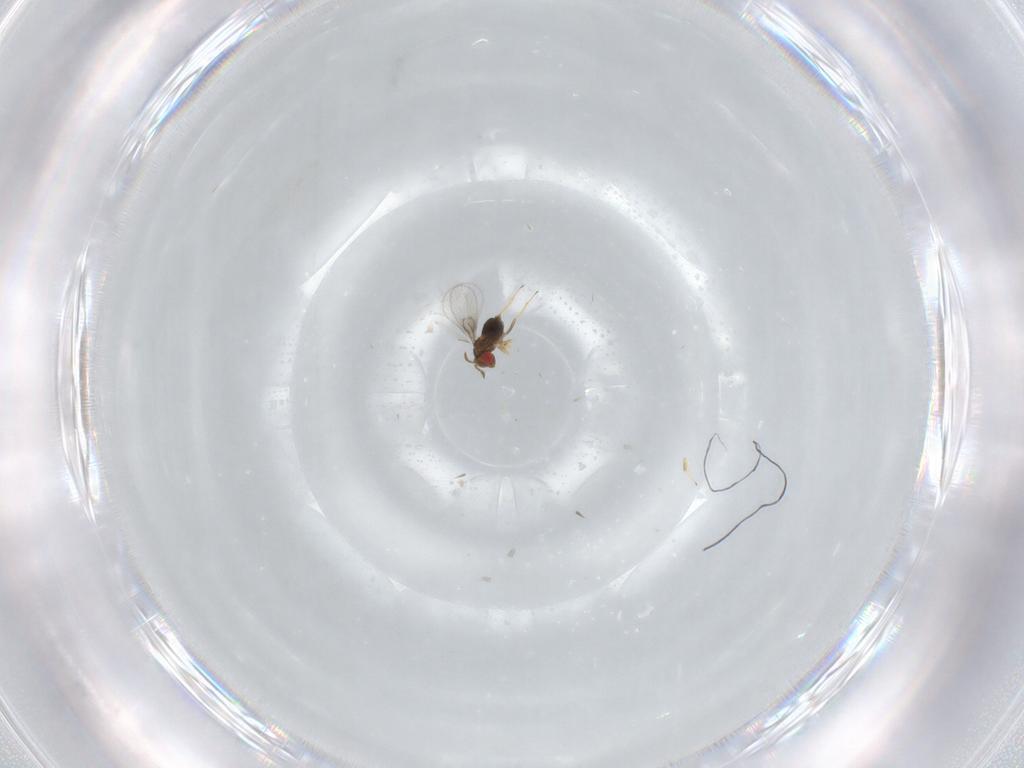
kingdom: Animalia
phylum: Arthropoda
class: Insecta
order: Hymenoptera
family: Trichogrammatidae
